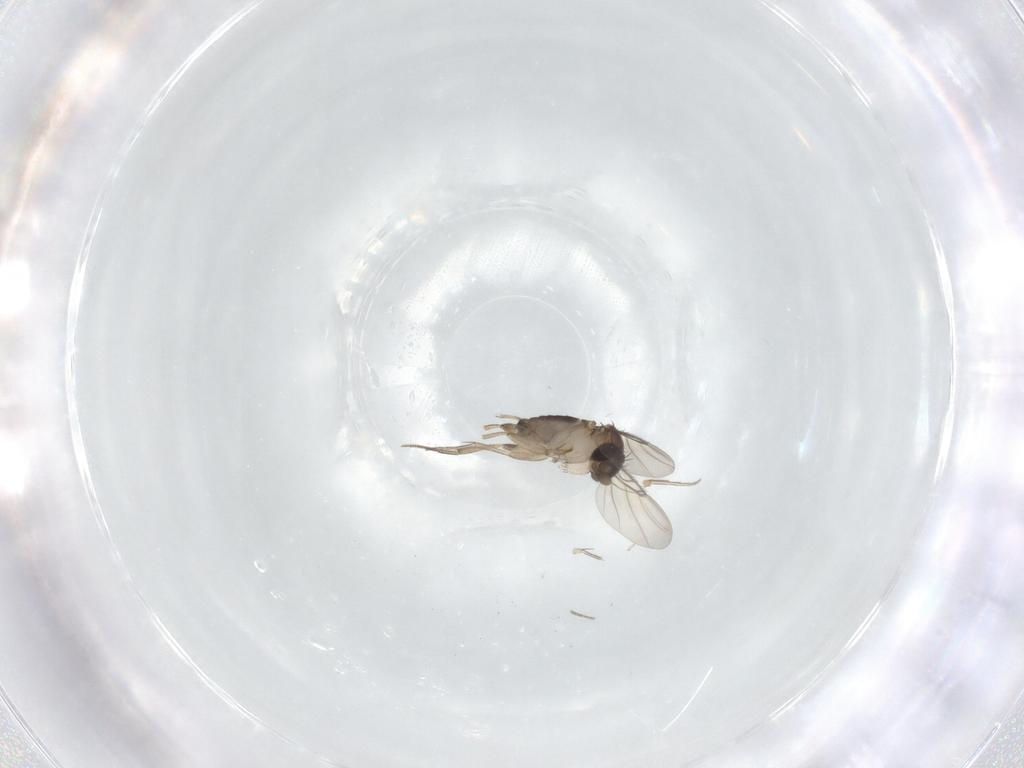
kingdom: Animalia
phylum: Arthropoda
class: Insecta
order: Diptera
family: Phoridae
